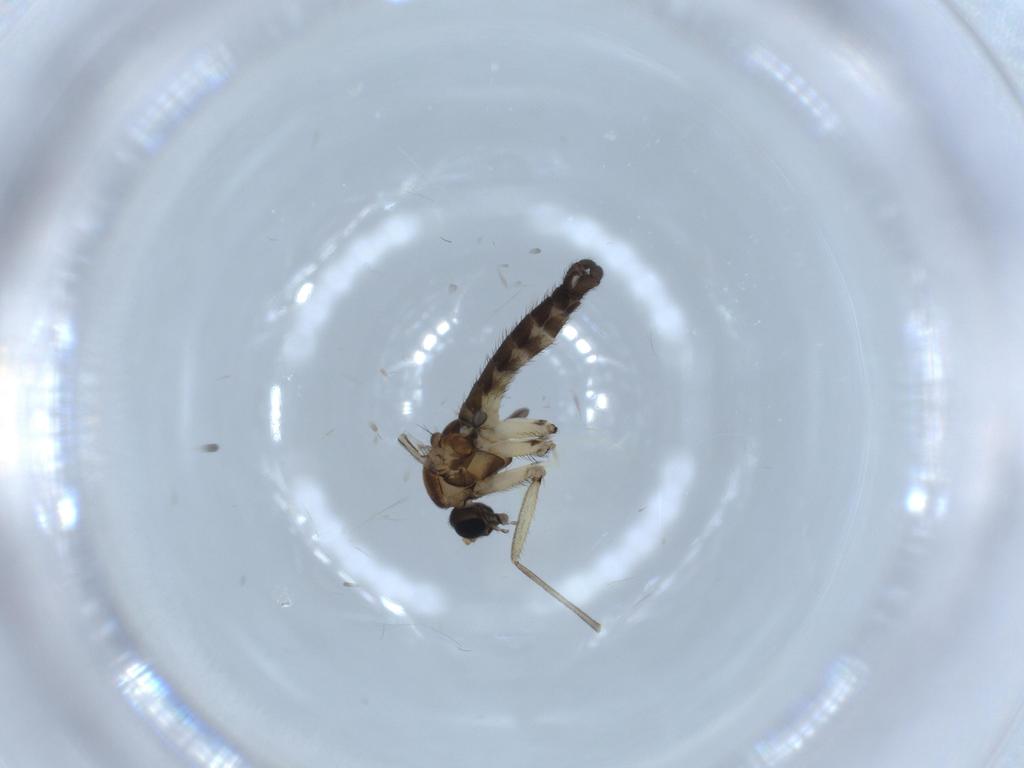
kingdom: Animalia
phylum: Arthropoda
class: Insecta
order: Diptera
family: Sciaridae
